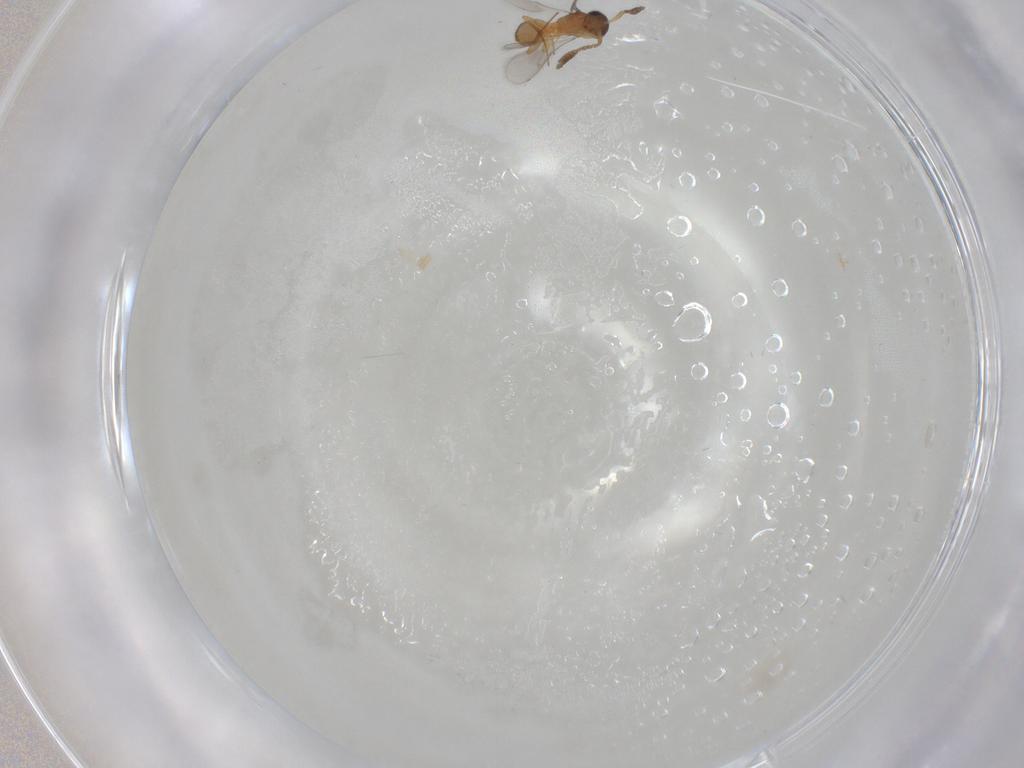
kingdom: Animalia
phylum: Arthropoda
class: Insecta
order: Hymenoptera
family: Scelionidae
